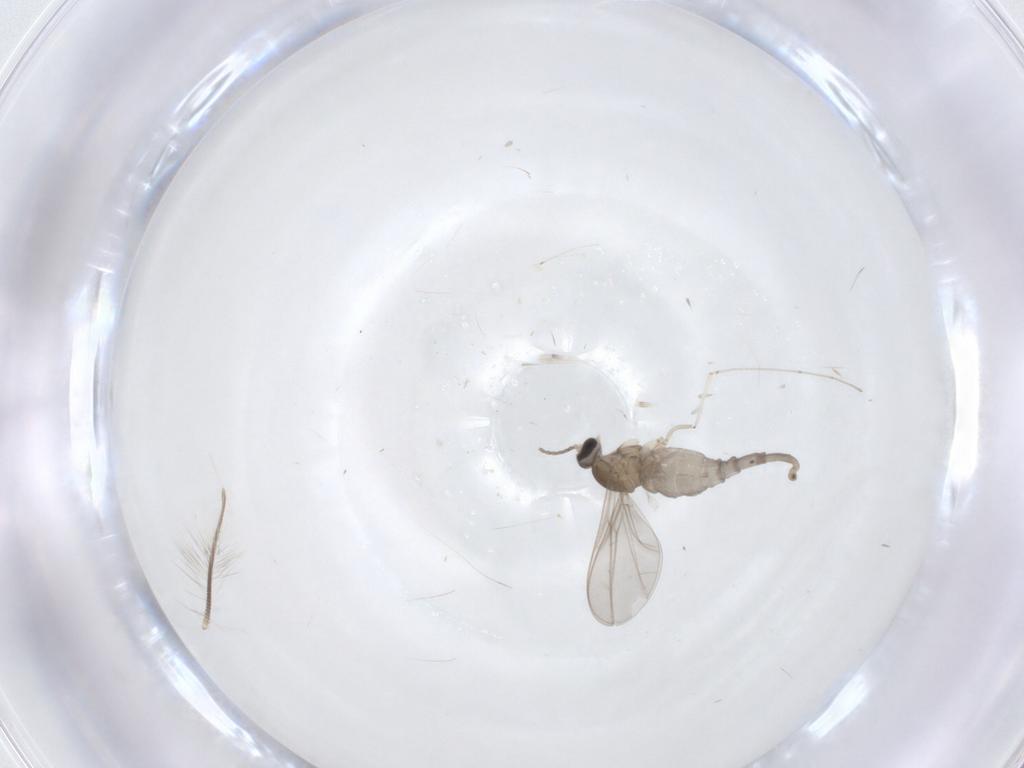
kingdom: Animalia
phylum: Arthropoda
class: Insecta
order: Diptera
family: Cecidomyiidae
